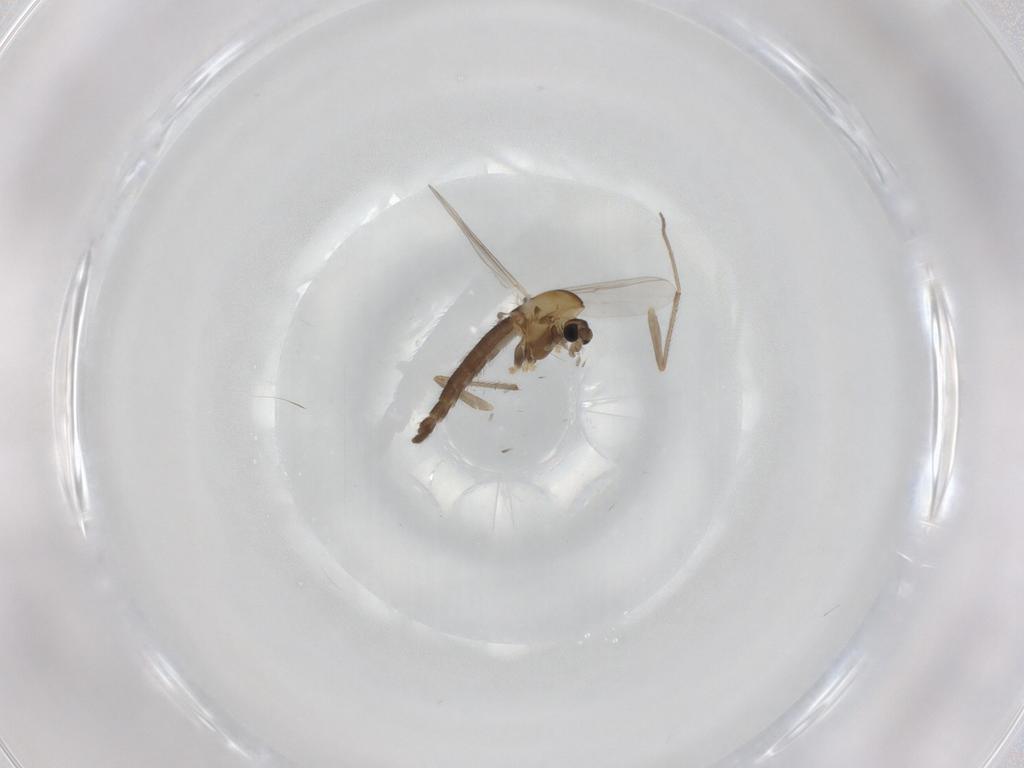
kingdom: Animalia
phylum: Arthropoda
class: Insecta
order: Diptera
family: Chironomidae
